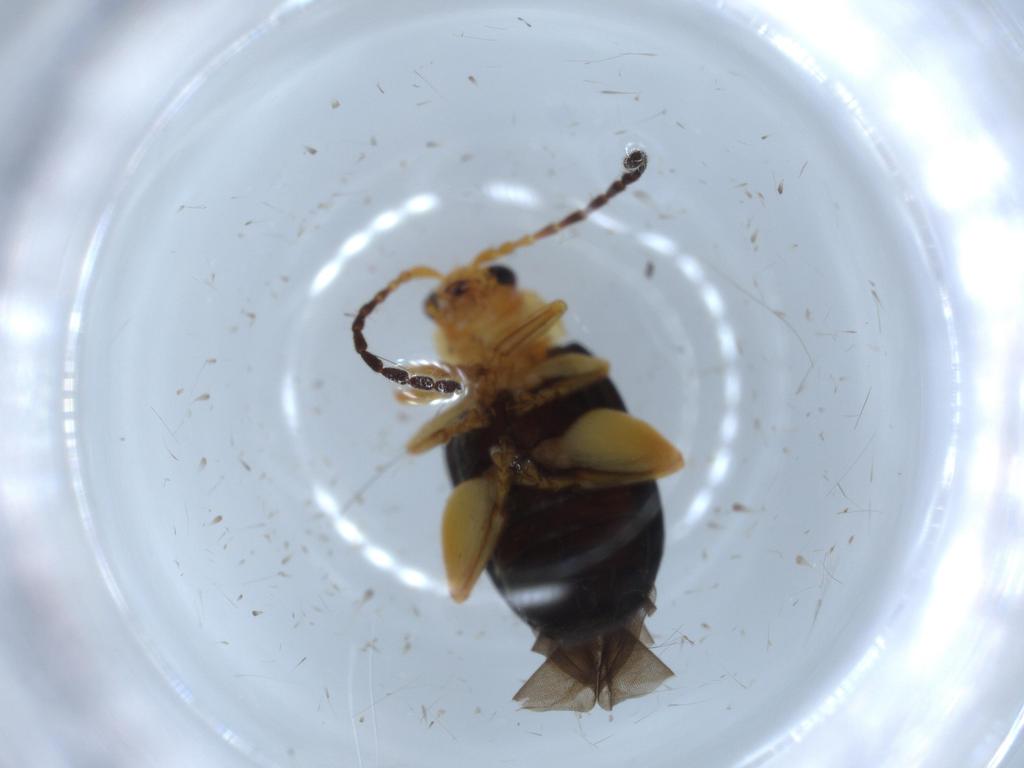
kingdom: Animalia
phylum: Arthropoda
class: Insecta
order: Coleoptera
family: Chrysomelidae
